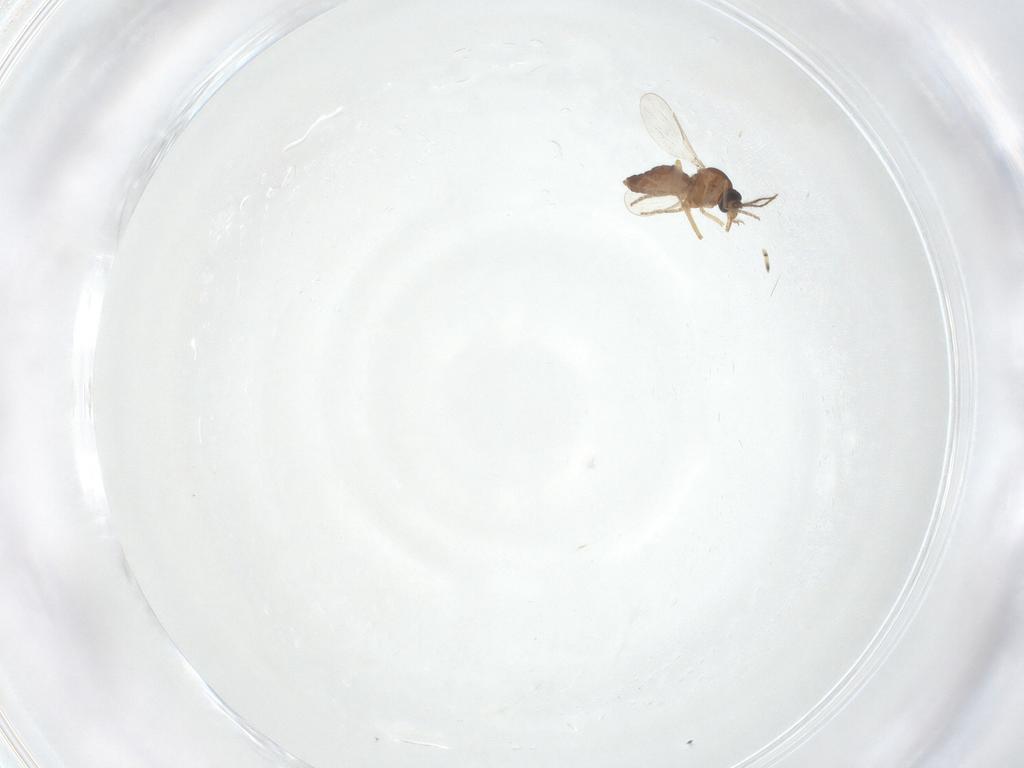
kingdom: Animalia
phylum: Arthropoda
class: Insecta
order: Diptera
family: Ceratopogonidae
